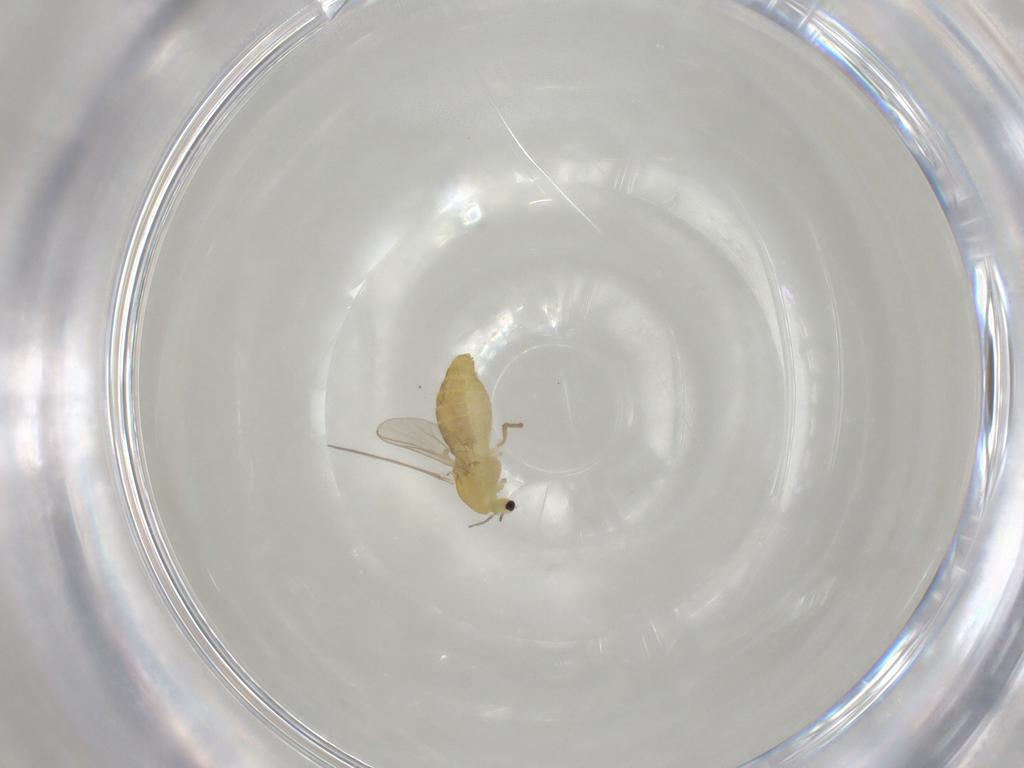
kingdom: Animalia
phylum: Arthropoda
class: Insecta
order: Diptera
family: Chironomidae
